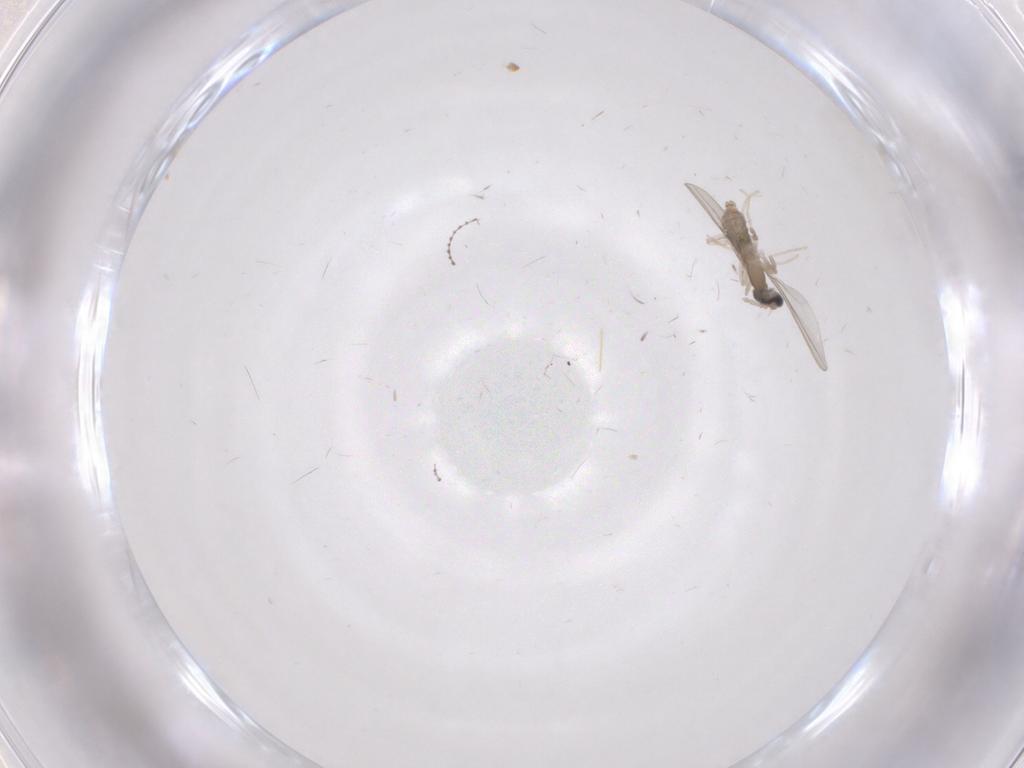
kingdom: Animalia
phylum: Arthropoda
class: Insecta
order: Diptera
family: Cecidomyiidae
